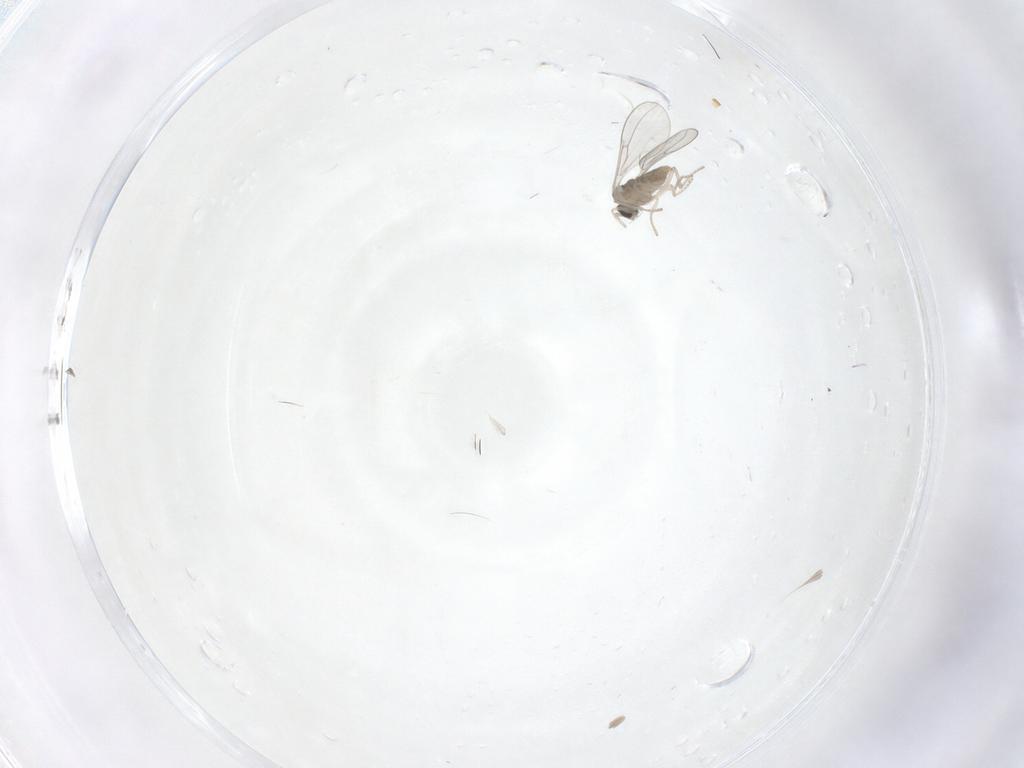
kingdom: Animalia
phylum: Arthropoda
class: Insecta
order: Diptera
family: Cecidomyiidae
